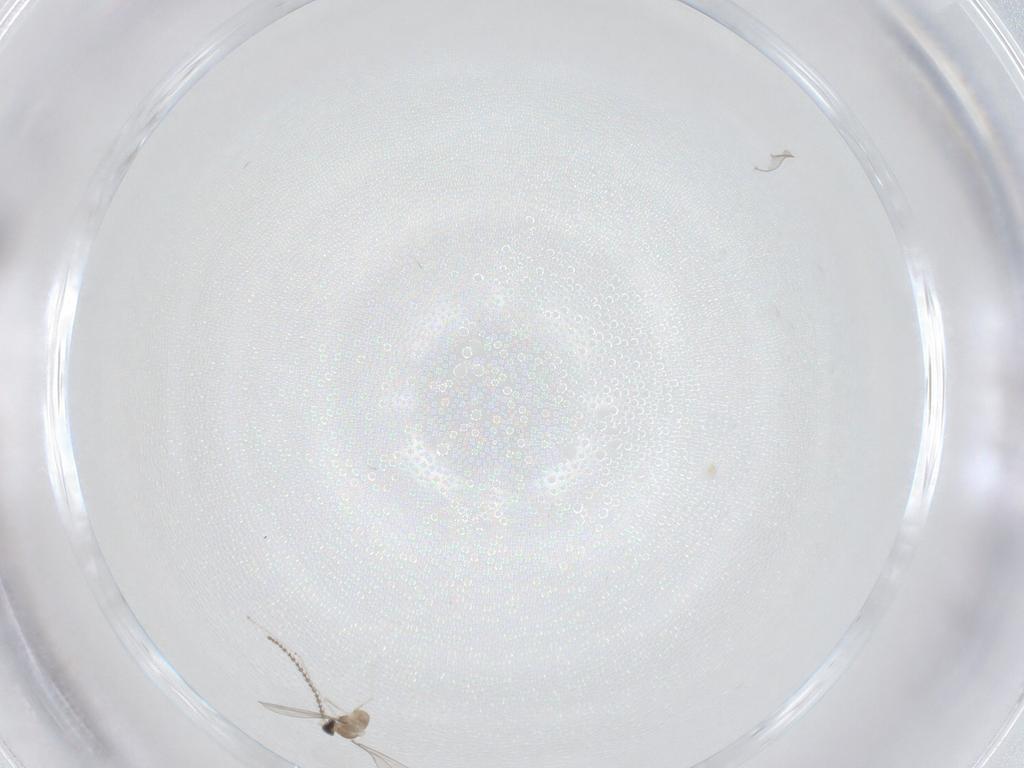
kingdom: Animalia
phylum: Arthropoda
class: Insecta
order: Diptera
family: Cecidomyiidae
